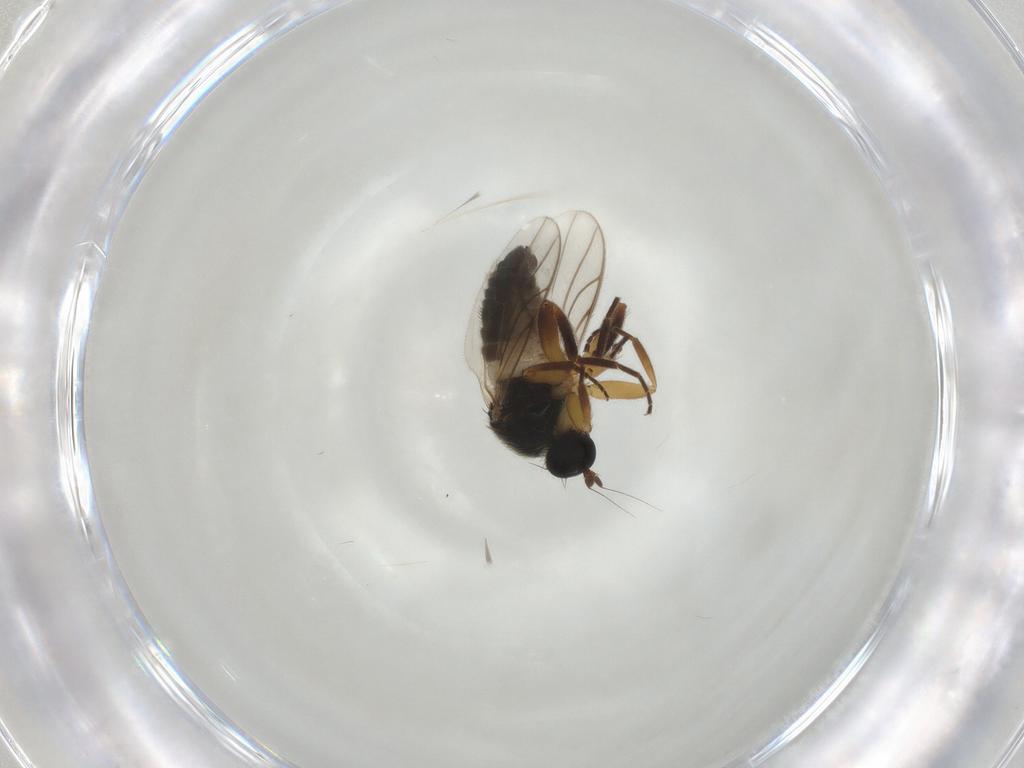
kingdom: Animalia
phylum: Arthropoda
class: Insecta
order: Diptera
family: Hybotidae
